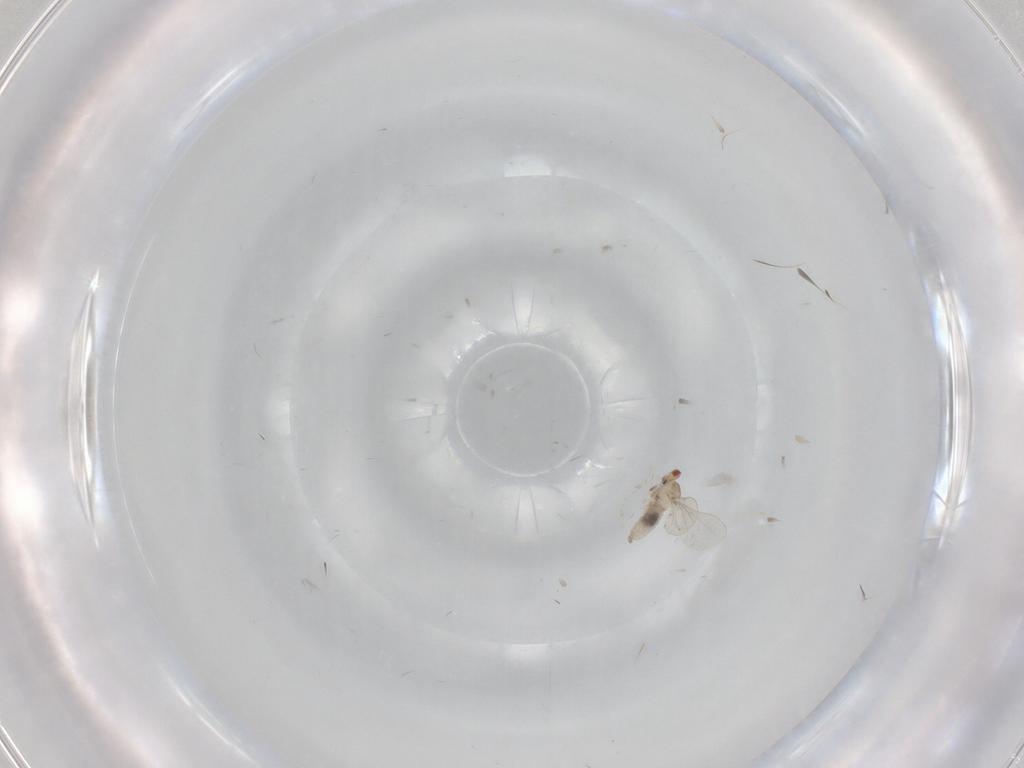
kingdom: Animalia
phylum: Arthropoda
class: Insecta
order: Diptera
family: Cecidomyiidae
